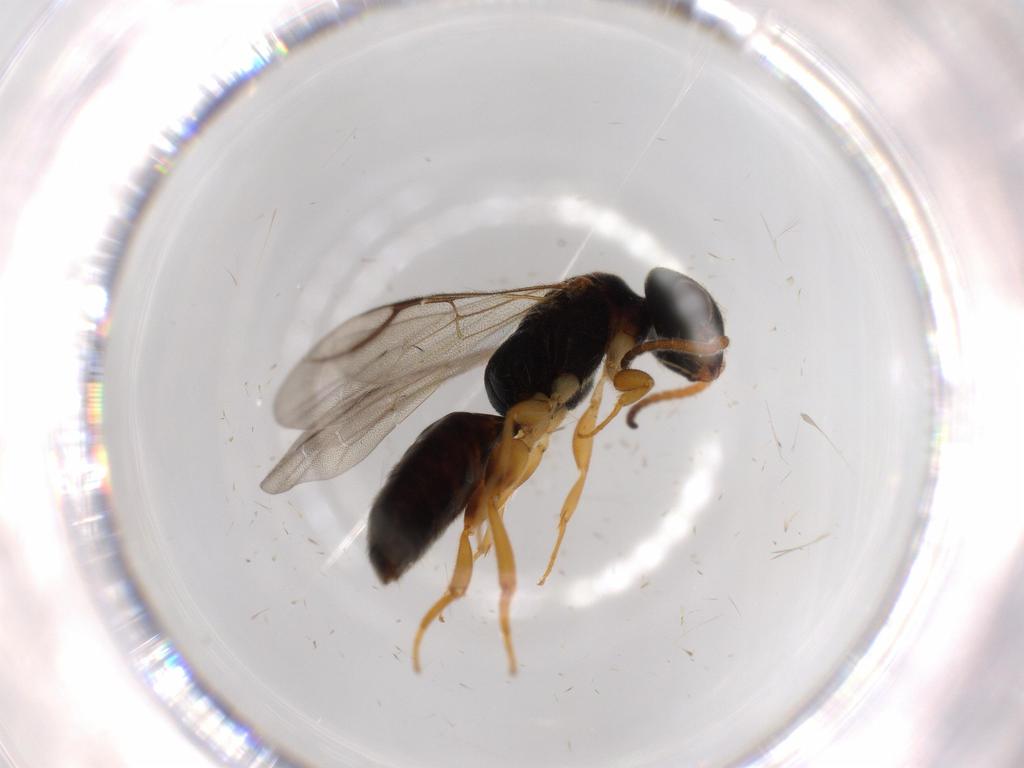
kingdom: Animalia
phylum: Arthropoda
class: Insecta
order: Hymenoptera
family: Bethylidae
